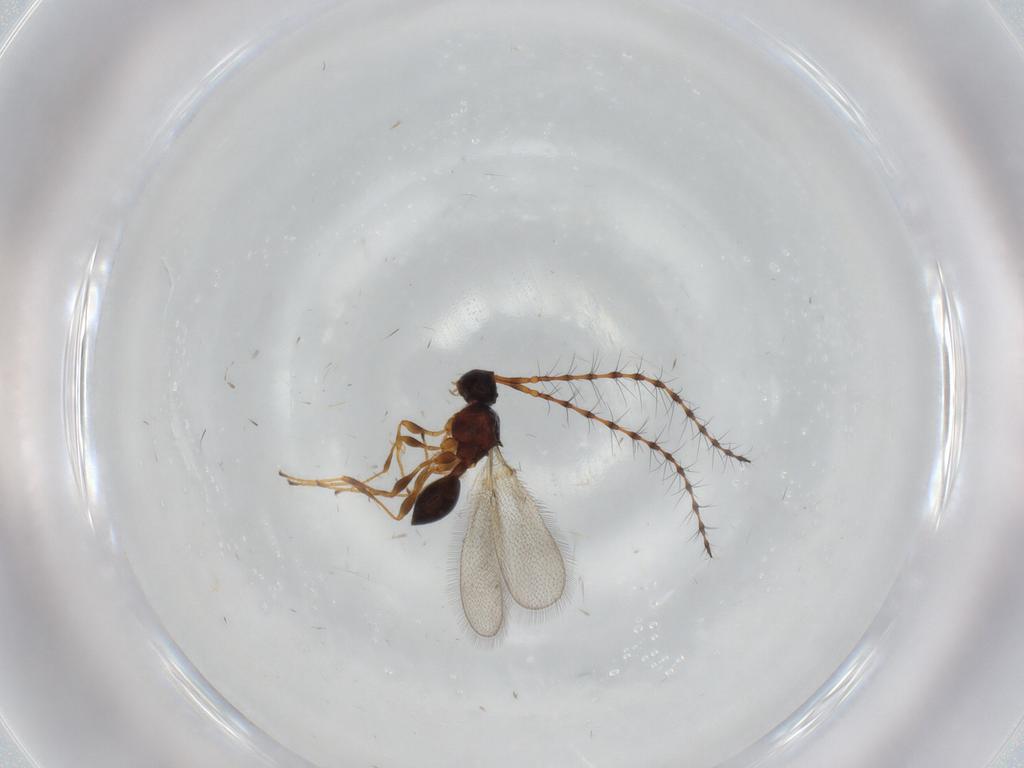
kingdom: Animalia
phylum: Arthropoda
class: Insecta
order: Hymenoptera
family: Diapriidae
